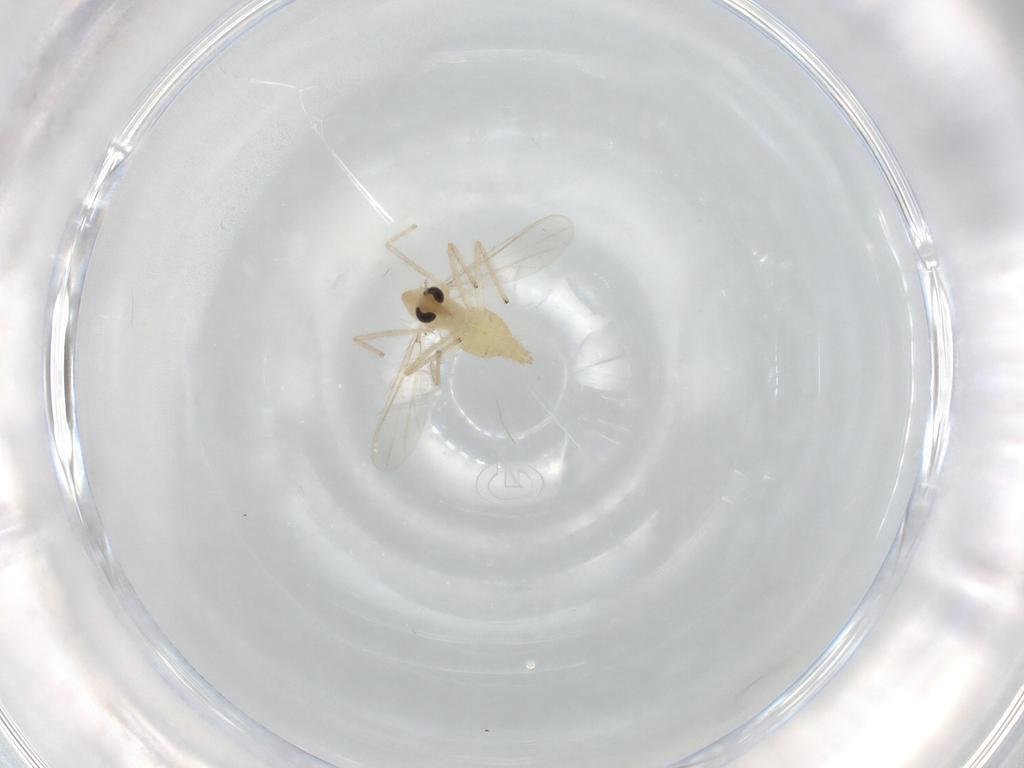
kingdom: Animalia
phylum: Arthropoda
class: Insecta
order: Diptera
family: Chironomidae
